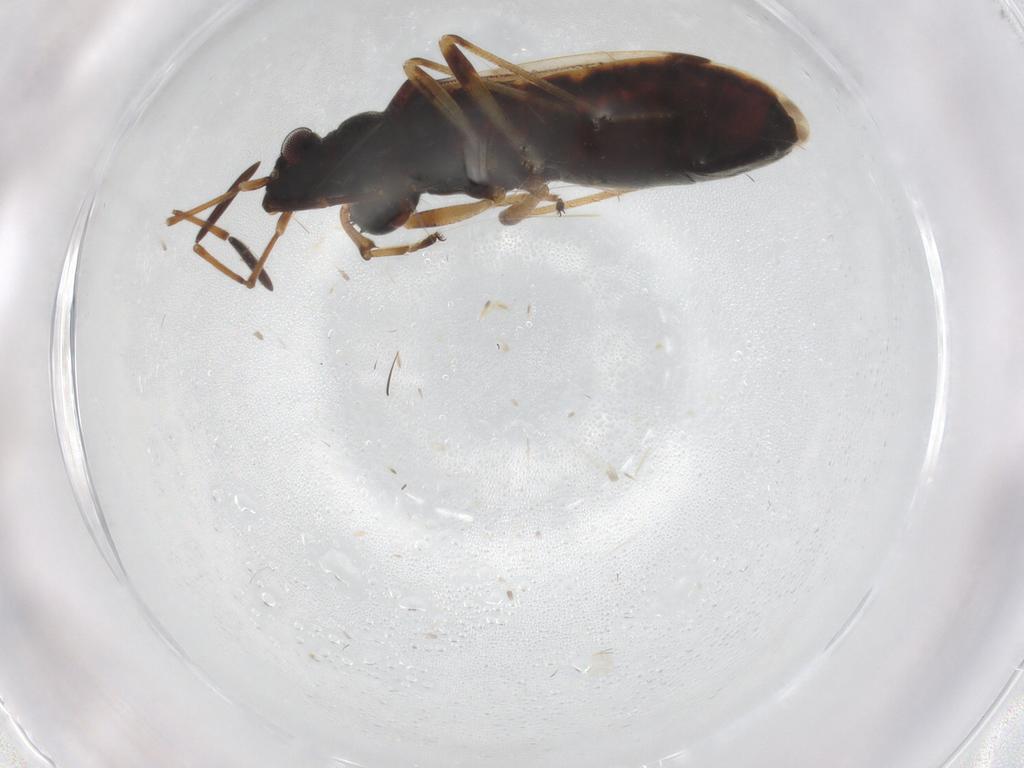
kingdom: Animalia
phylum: Arthropoda
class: Insecta
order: Hemiptera
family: Rhyparochromidae
